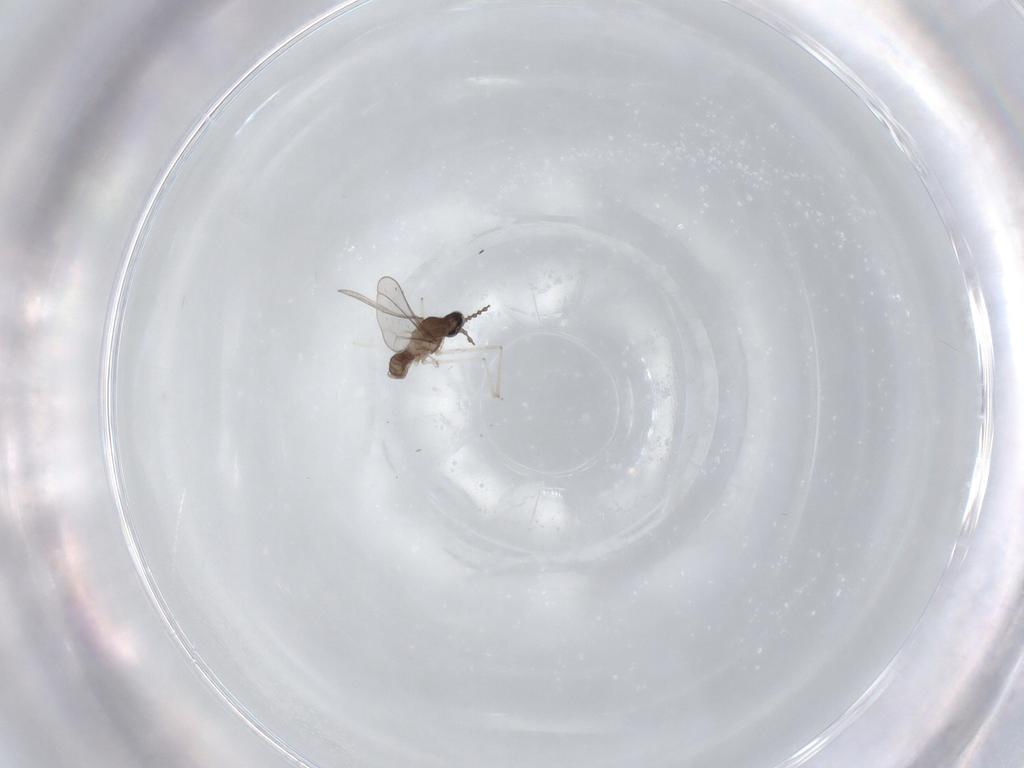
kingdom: Animalia
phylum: Arthropoda
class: Insecta
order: Diptera
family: Cecidomyiidae
